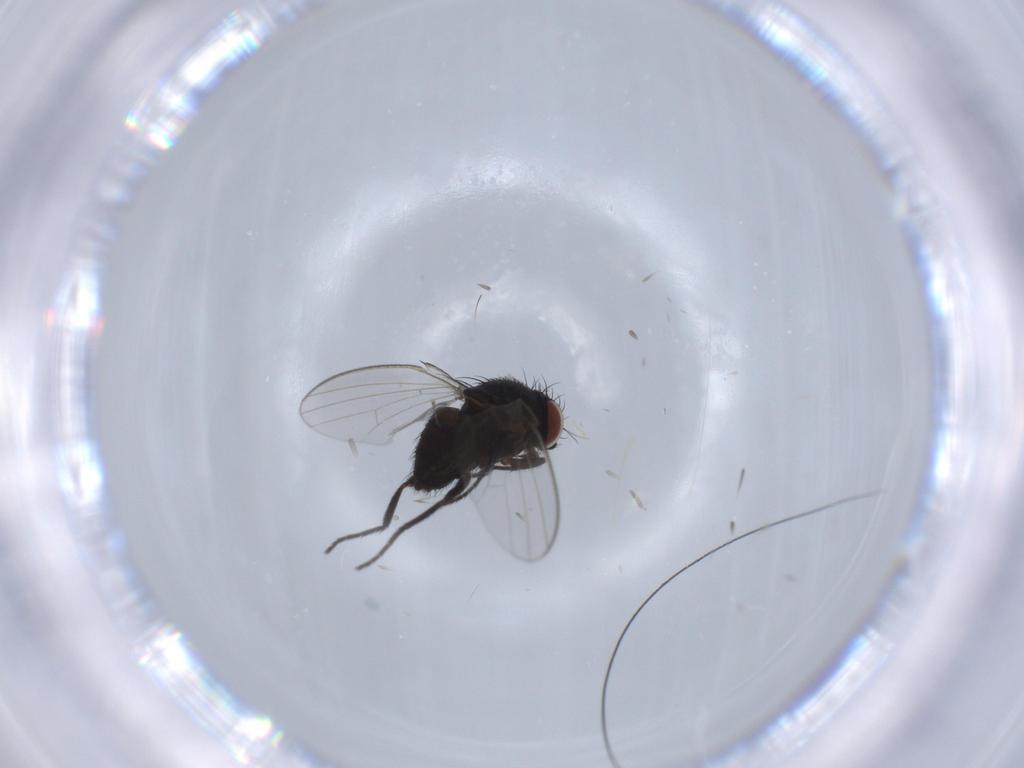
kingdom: Animalia
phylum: Arthropoda
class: Insecta
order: Diptera
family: Milichiidae
